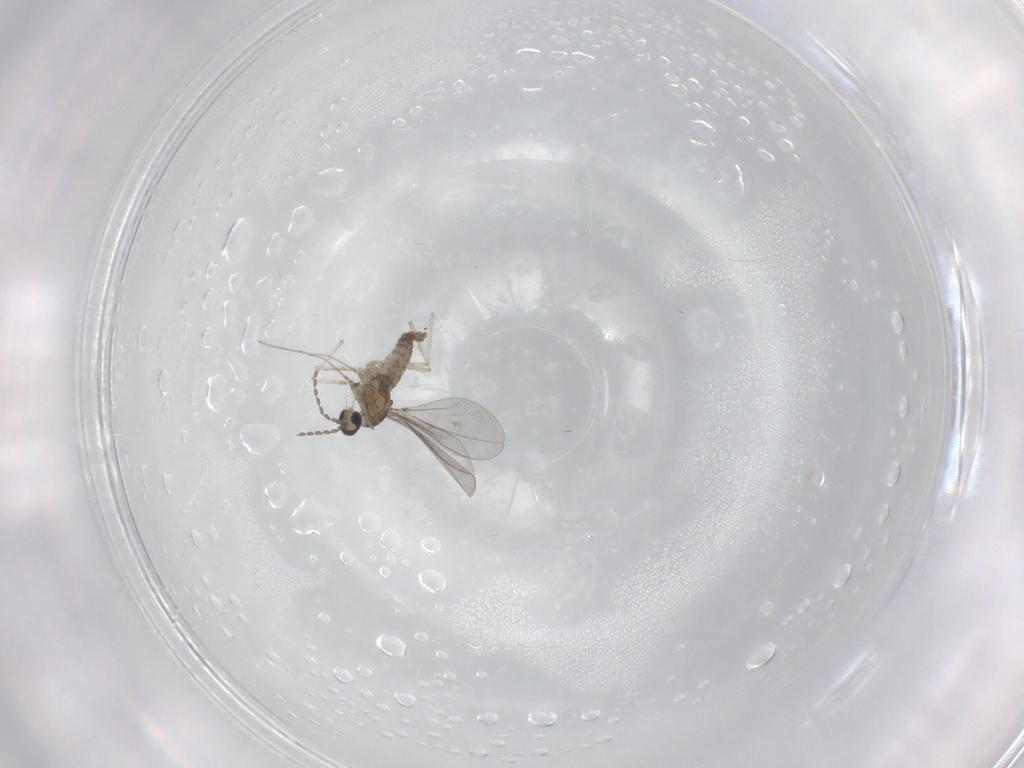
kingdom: Animalia
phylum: Arthropoda
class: Insecta
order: Diptera
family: Cecidomyiidae
